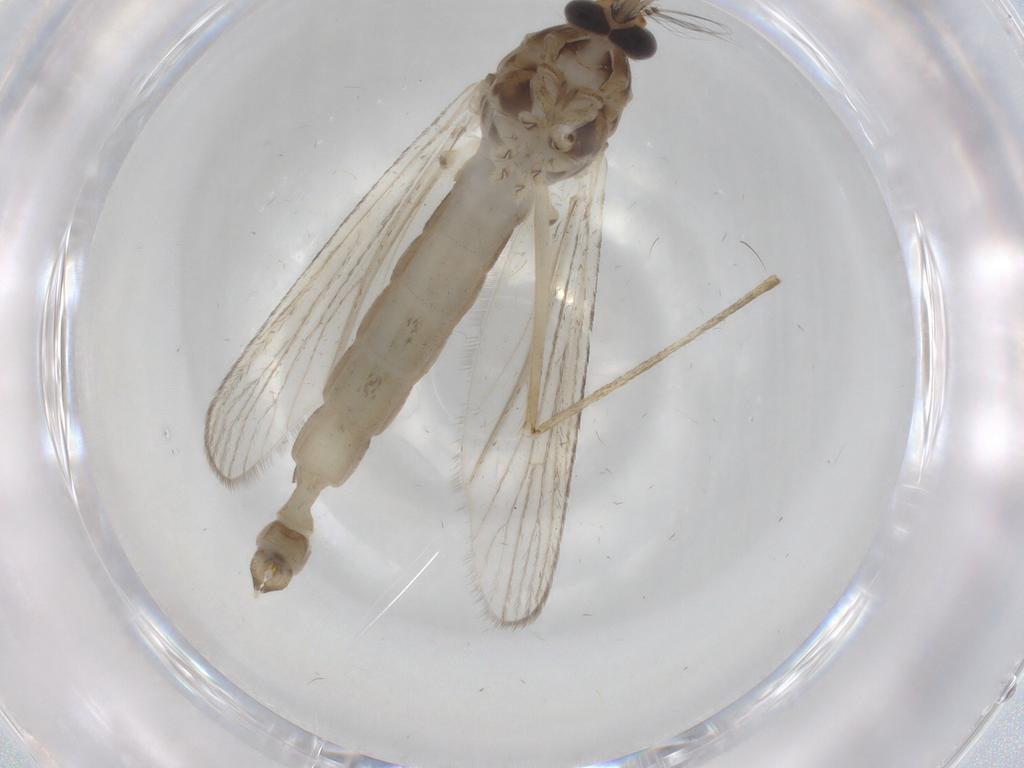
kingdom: Animalia
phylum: Arthropoda
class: Insecta
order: Diptera
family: Culicidae
